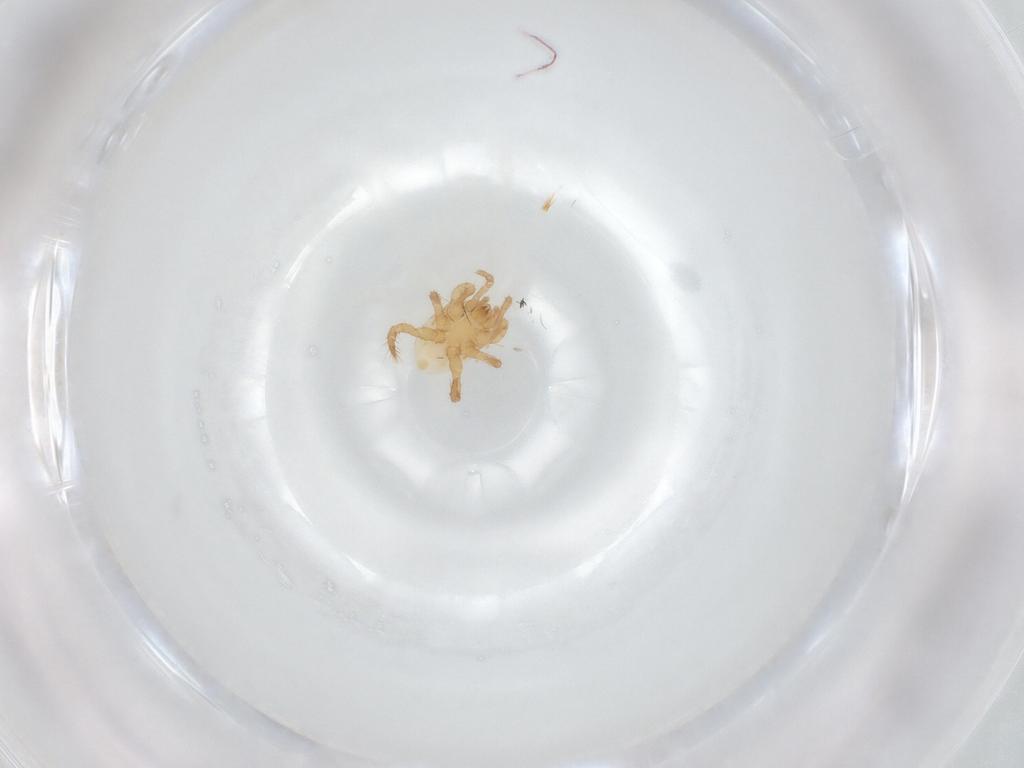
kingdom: Animalia
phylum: Arthropoda
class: Arachnida
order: Mesostigmata
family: Parasitidae
